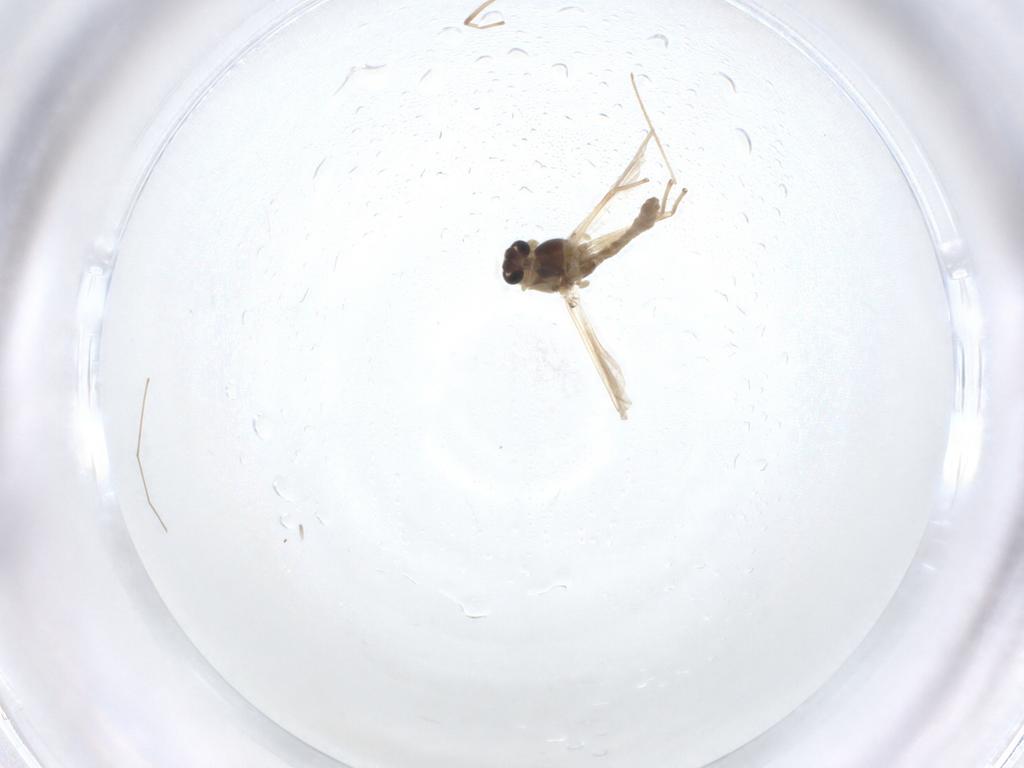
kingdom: Animalia
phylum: Arthropoda
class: Insecta
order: Diptera
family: Chironomidae
